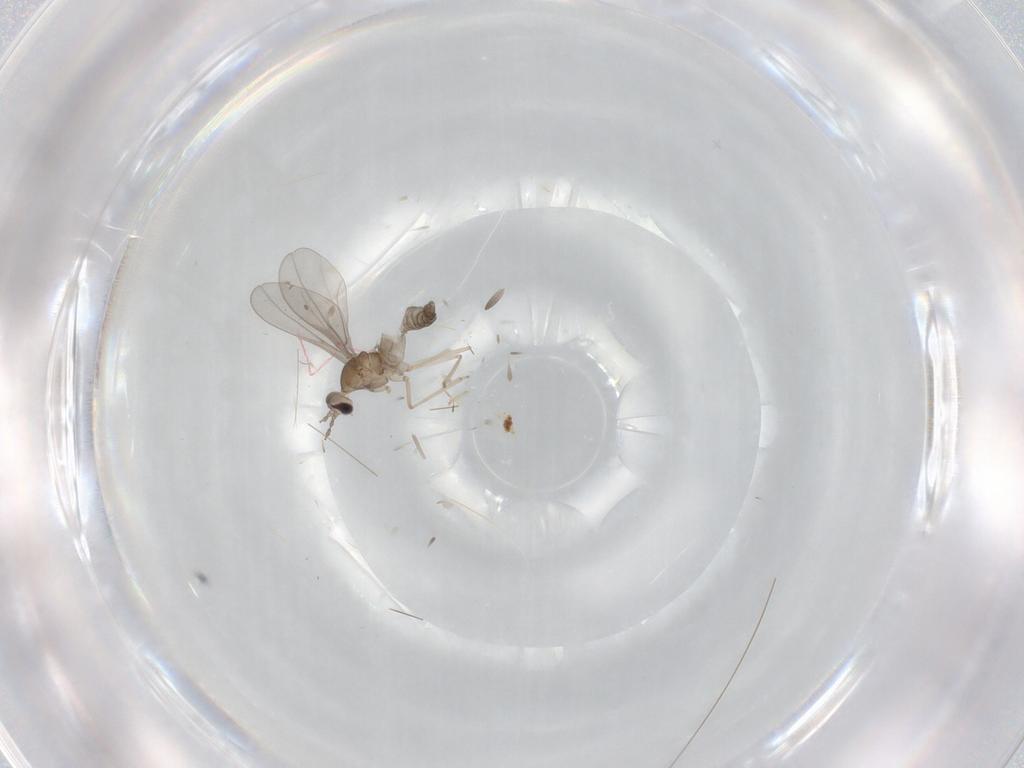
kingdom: Animalia
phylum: Arthropoda
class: Insecta
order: Diptera
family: Cecidomyiidae
